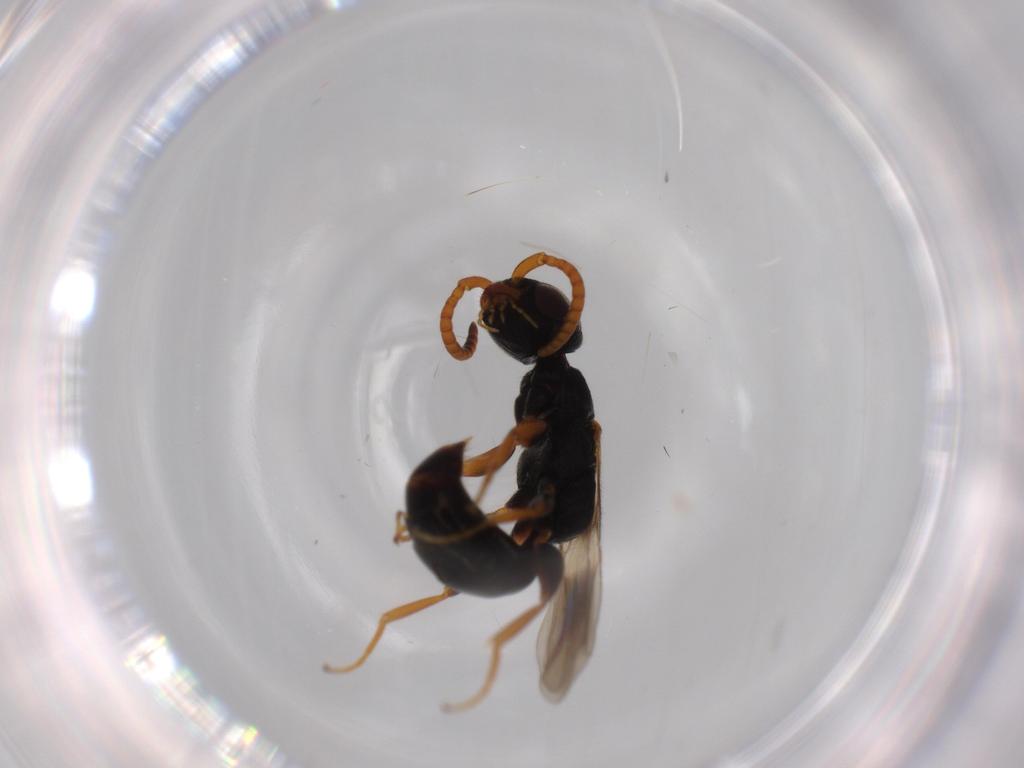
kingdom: Animalia
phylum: Arthropoda
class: Insecta
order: Hymenoptera
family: Bethylidae
